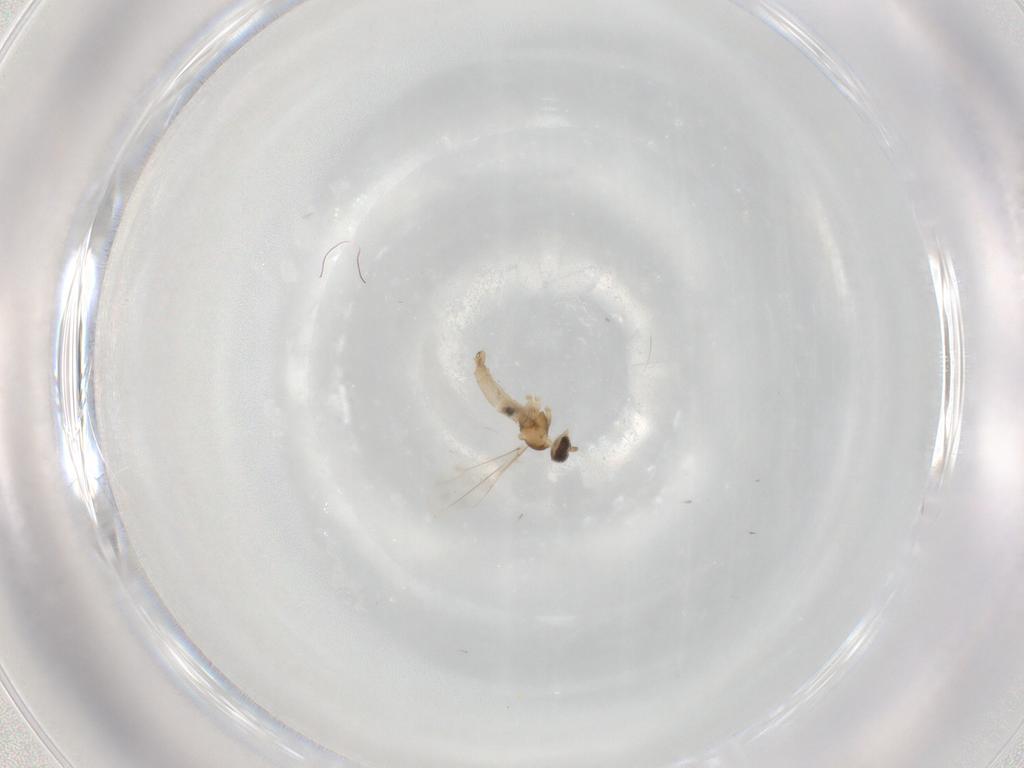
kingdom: Animalia
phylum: Arthropoda
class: Insecta
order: Diptera
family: Cecidomyiidae
